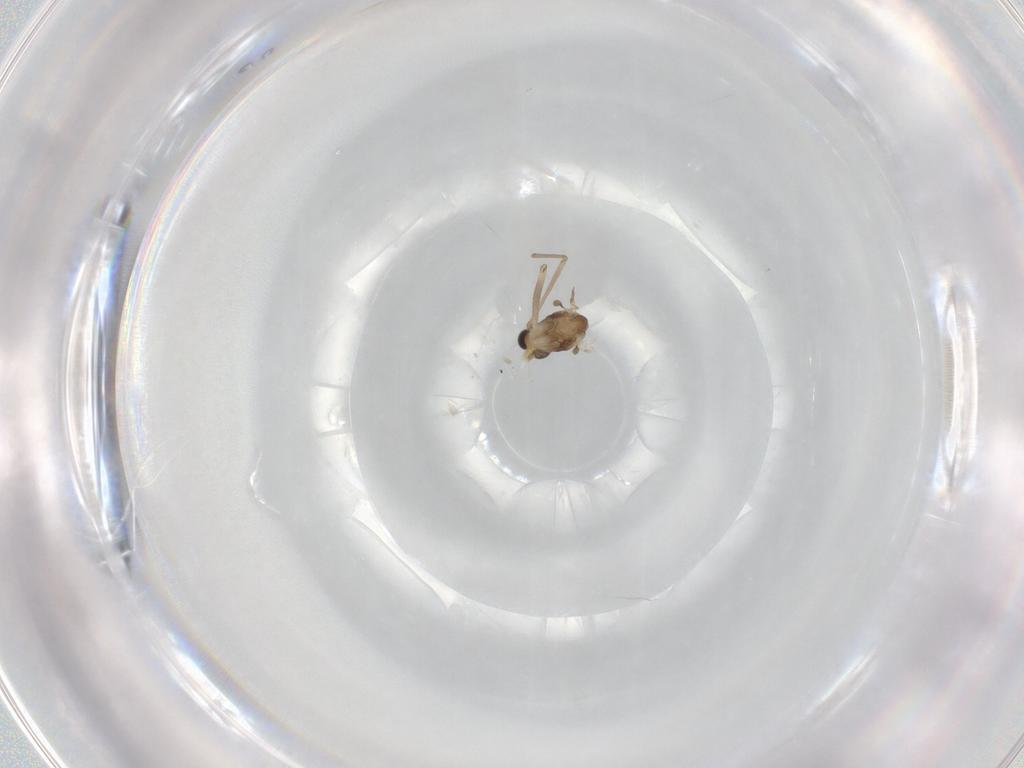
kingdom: Animalia
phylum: Arthropoda
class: Insecta
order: Diptera
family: Chironomidae
